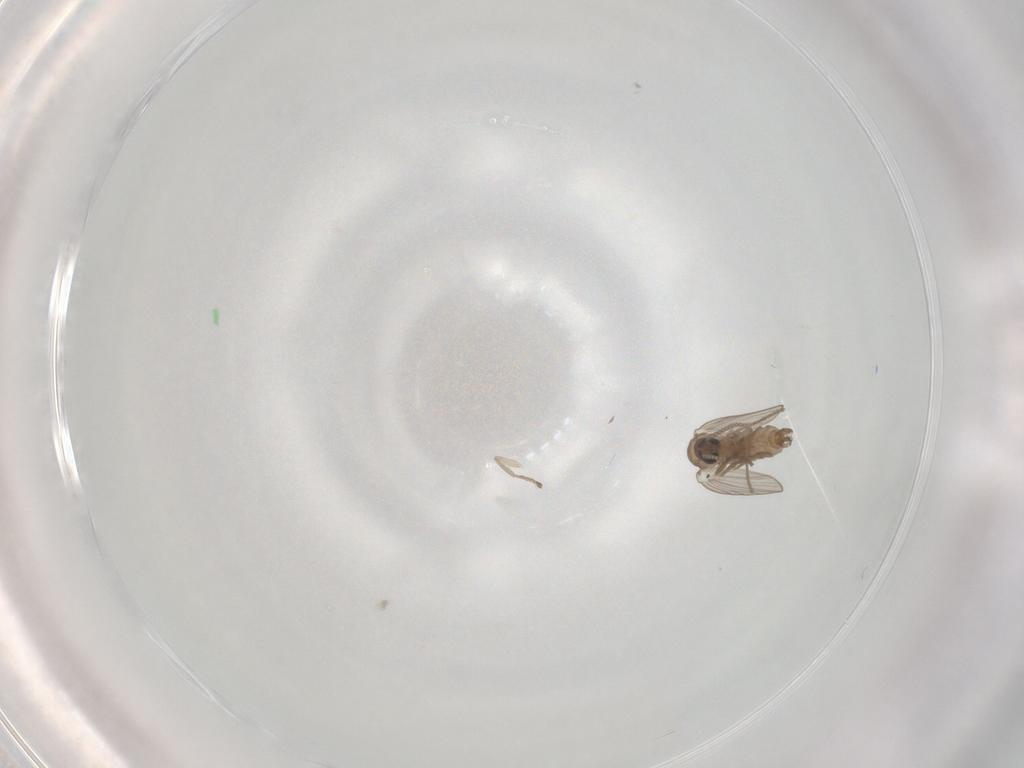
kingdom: Animalia
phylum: Arthropoda
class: Insecta
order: Diptera
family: Psychodidae
